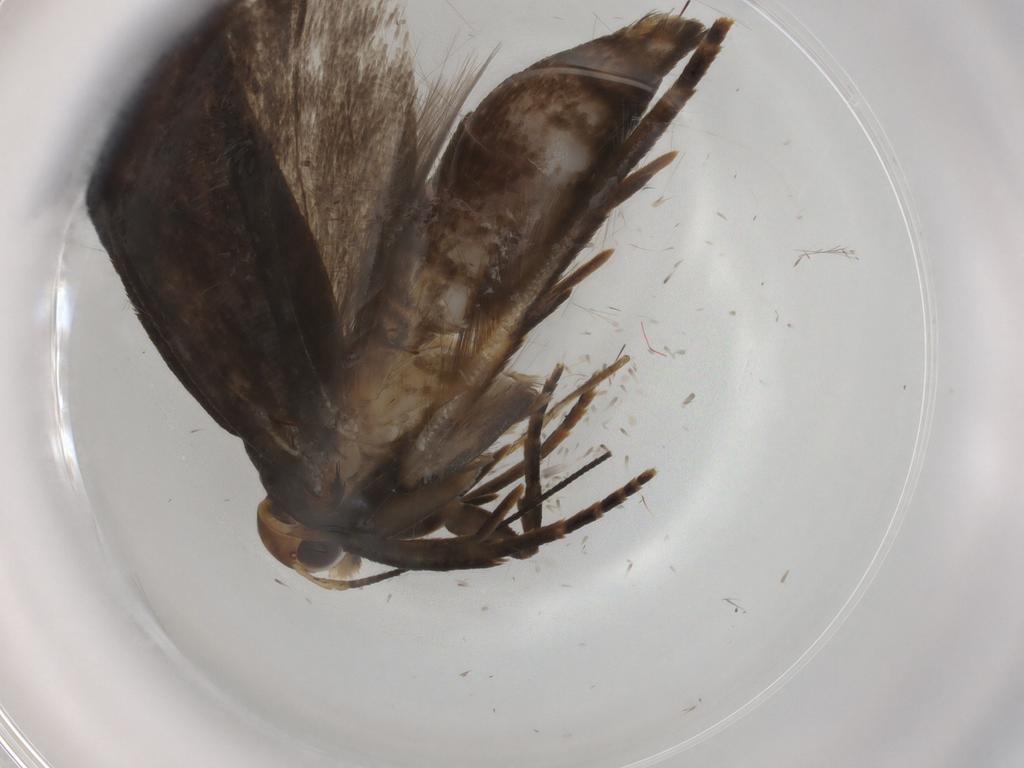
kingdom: Animalia
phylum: Arthropoda
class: Insecta
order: Lepidoptera
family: Gelechiidae
